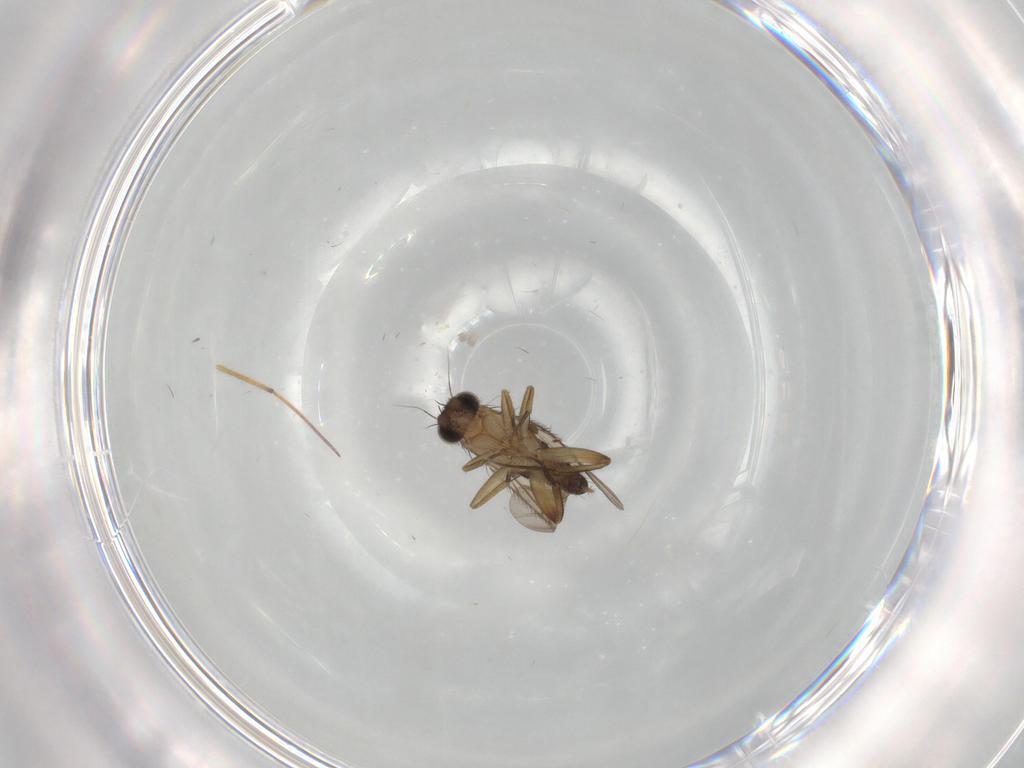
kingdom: Animalia
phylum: Arthropoda
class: Insecta
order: Diptera
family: Phoridae
